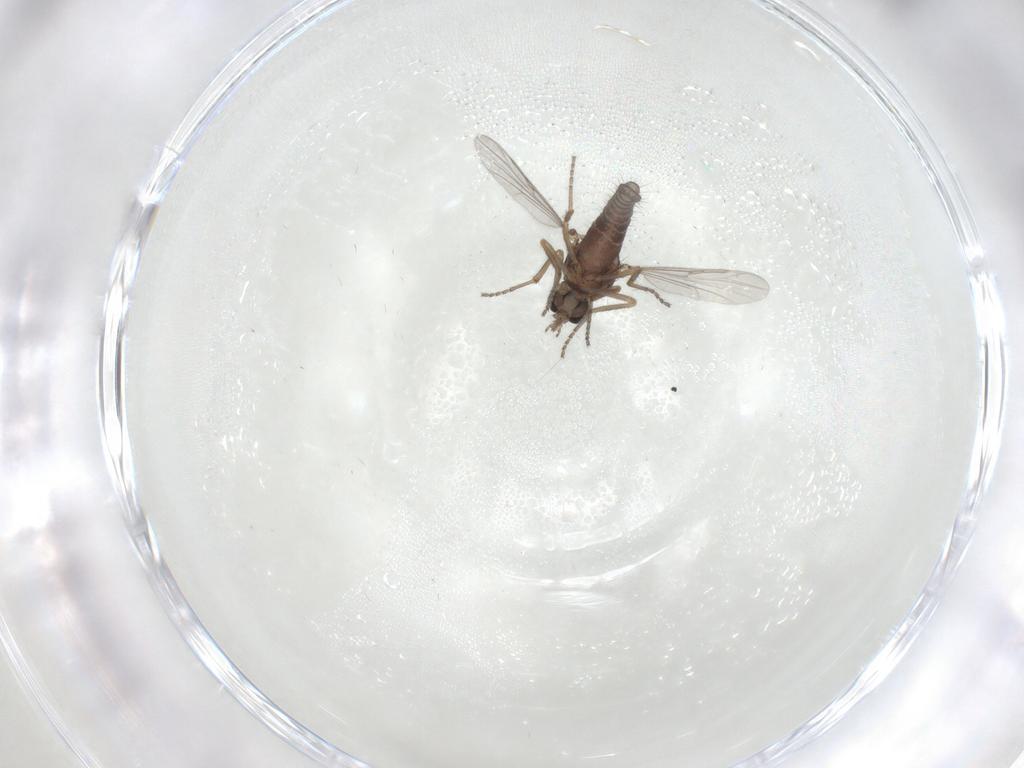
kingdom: Animalia
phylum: Arthropoda
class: Insecta
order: Diptera
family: Ceratopogonidae
